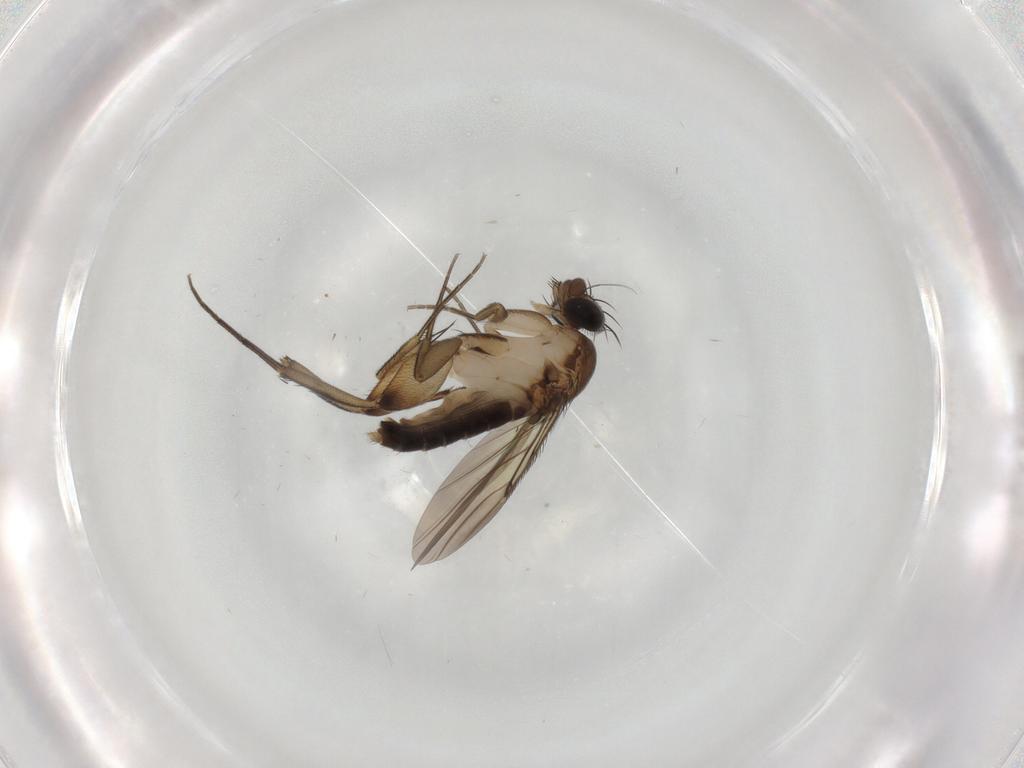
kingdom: Animalia
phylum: Arthropoda
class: Insecta
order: Diptera
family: Phoridae
